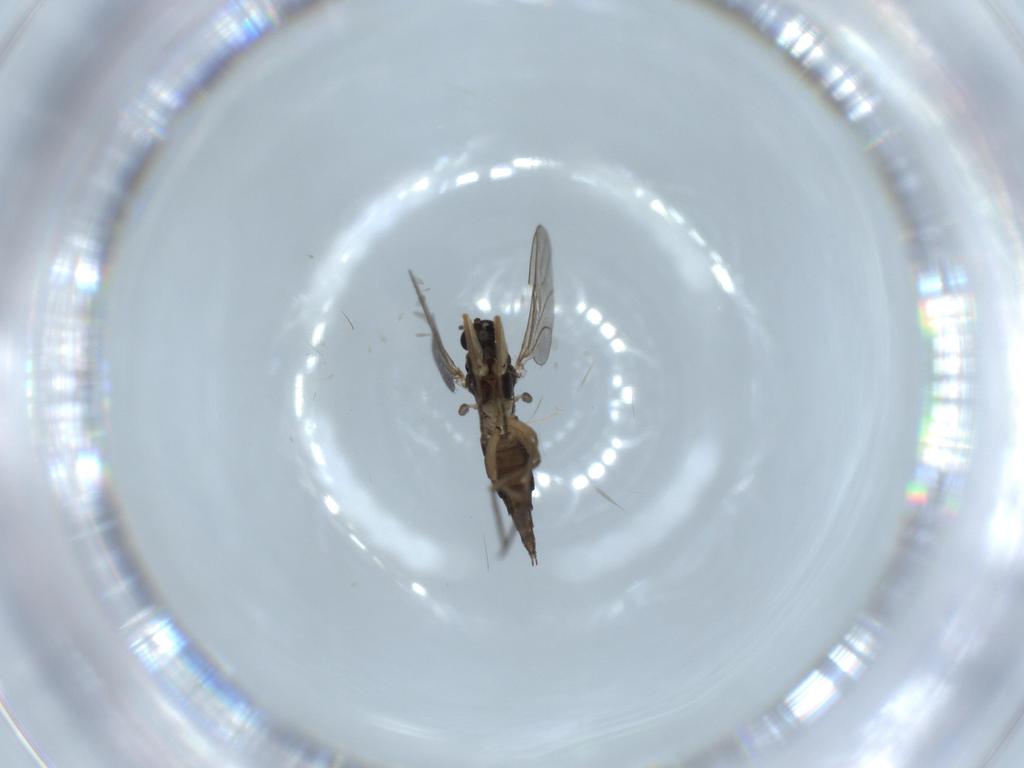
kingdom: Animalia
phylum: Arthropoda
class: Insecta
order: Diptera
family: Sciaridae
